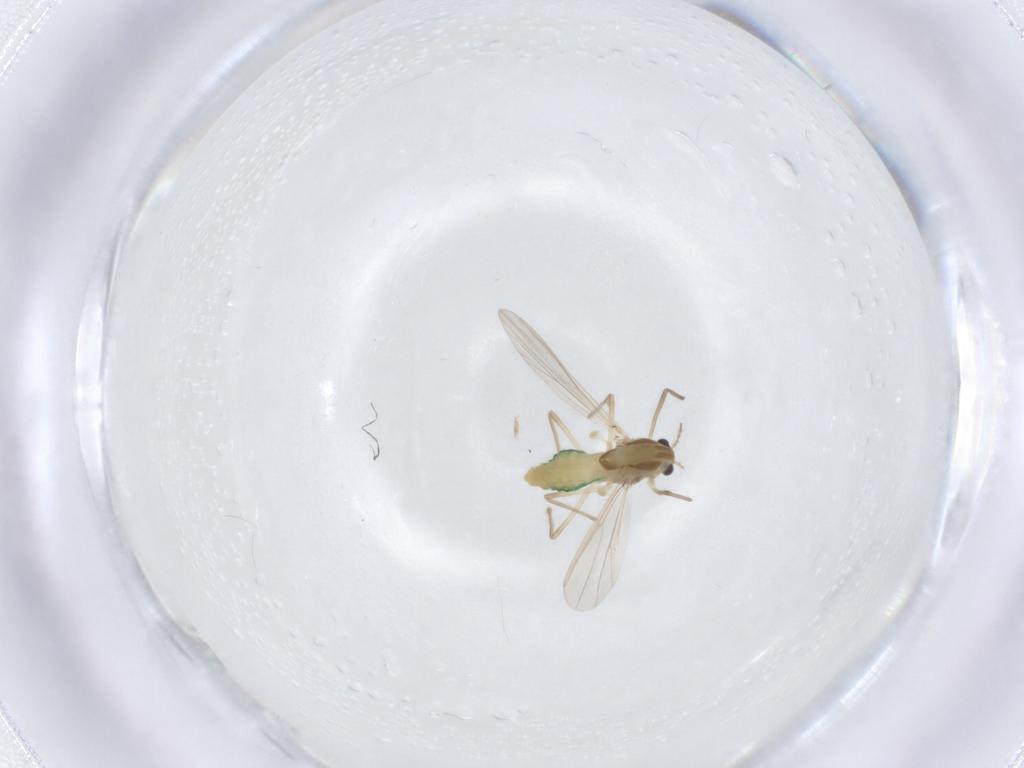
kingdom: Animalia
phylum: Arthropoda
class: Insecta
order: Diptera
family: Chironomidae
